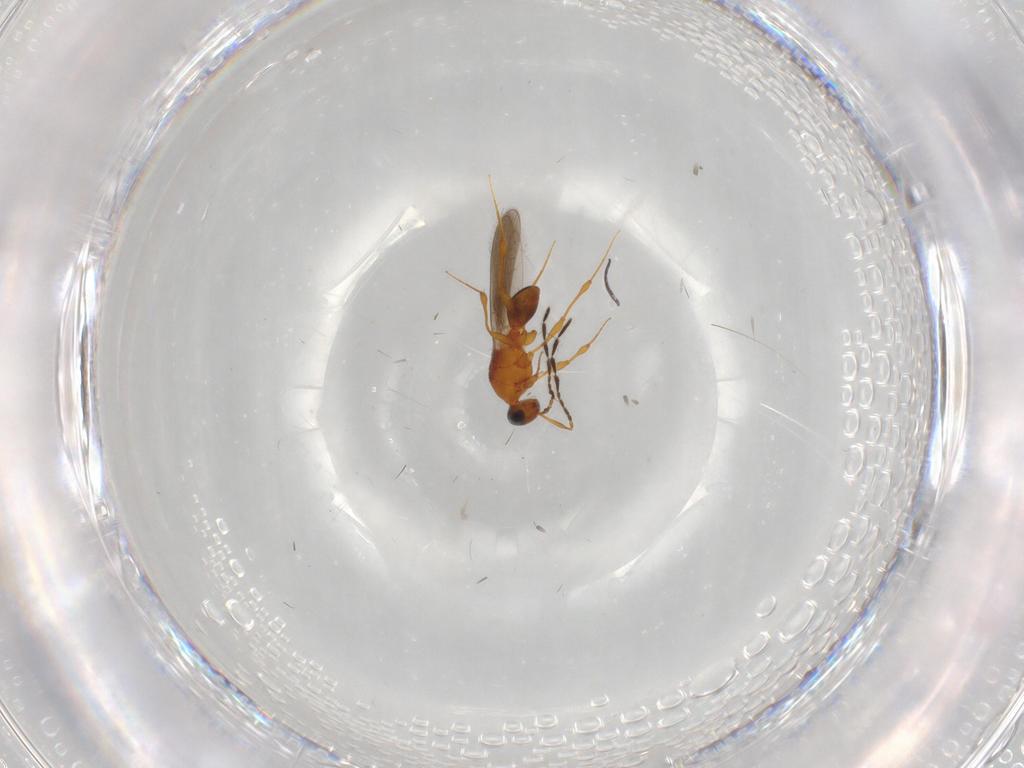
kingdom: Animalia
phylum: Arthropoda
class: Insecta
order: Hymenoptera
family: Platygastridae
